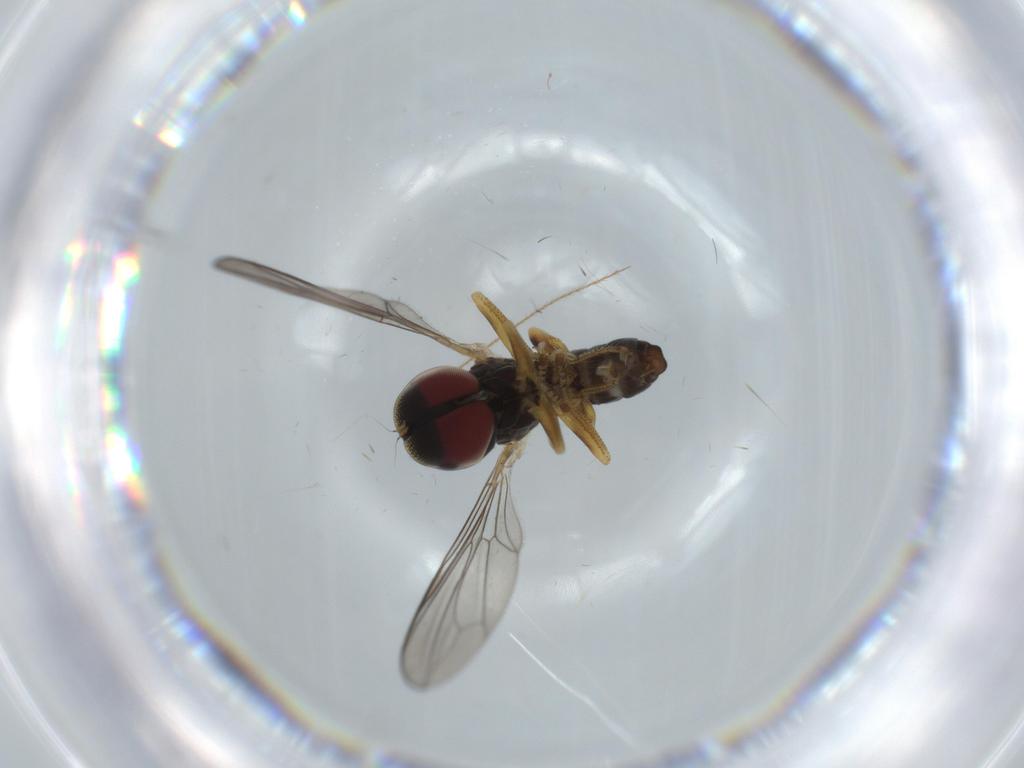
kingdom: Animalia
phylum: Arthropoda
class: Insecta
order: Diptera
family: Pipunculidae
